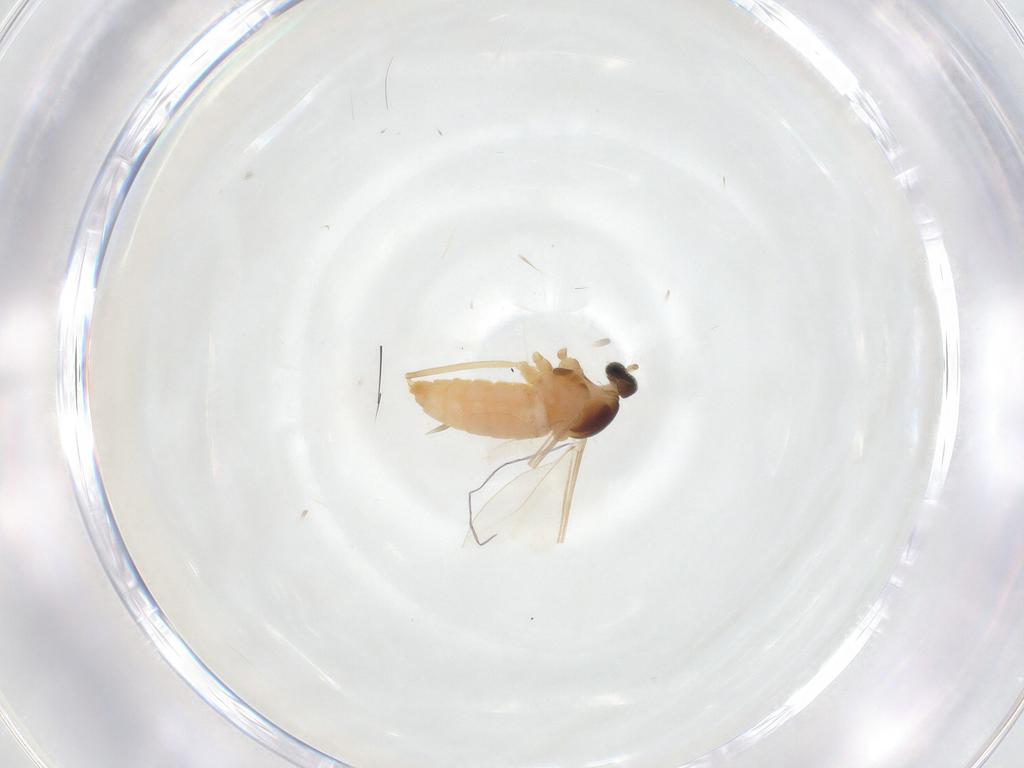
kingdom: Animalia
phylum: Arthropoda
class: Insecta
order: Diptera
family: Cecidomyiidae
